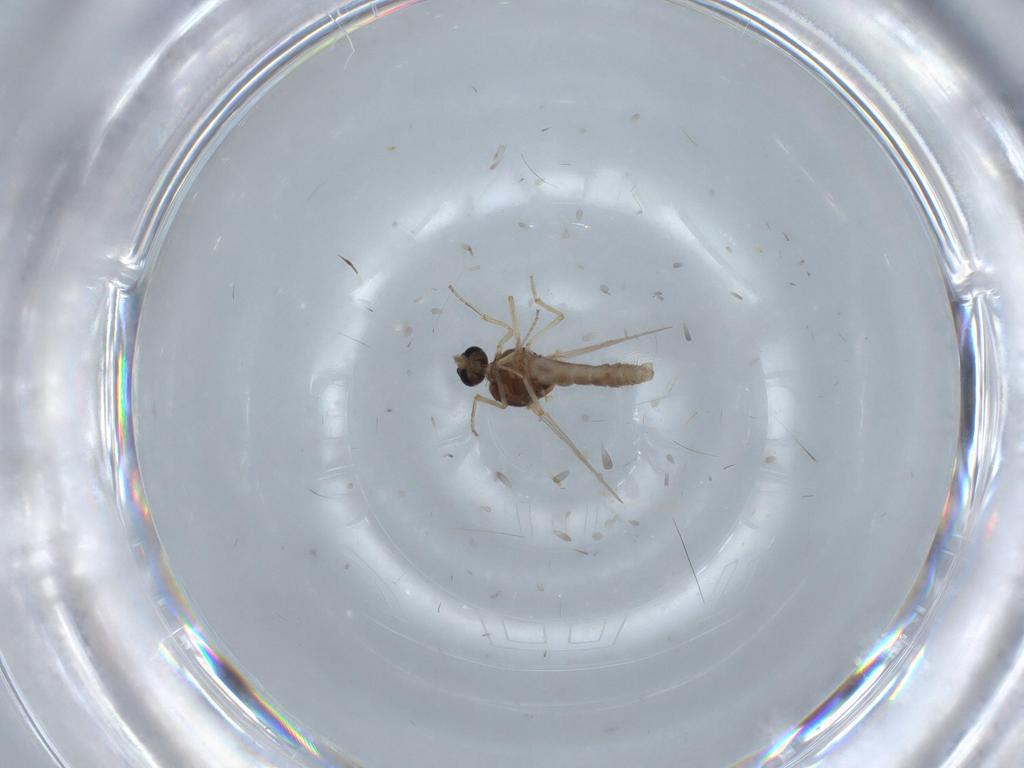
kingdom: Animalia
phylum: Arthropoda
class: Insecta
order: Diptera
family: Ceratopogonidae
